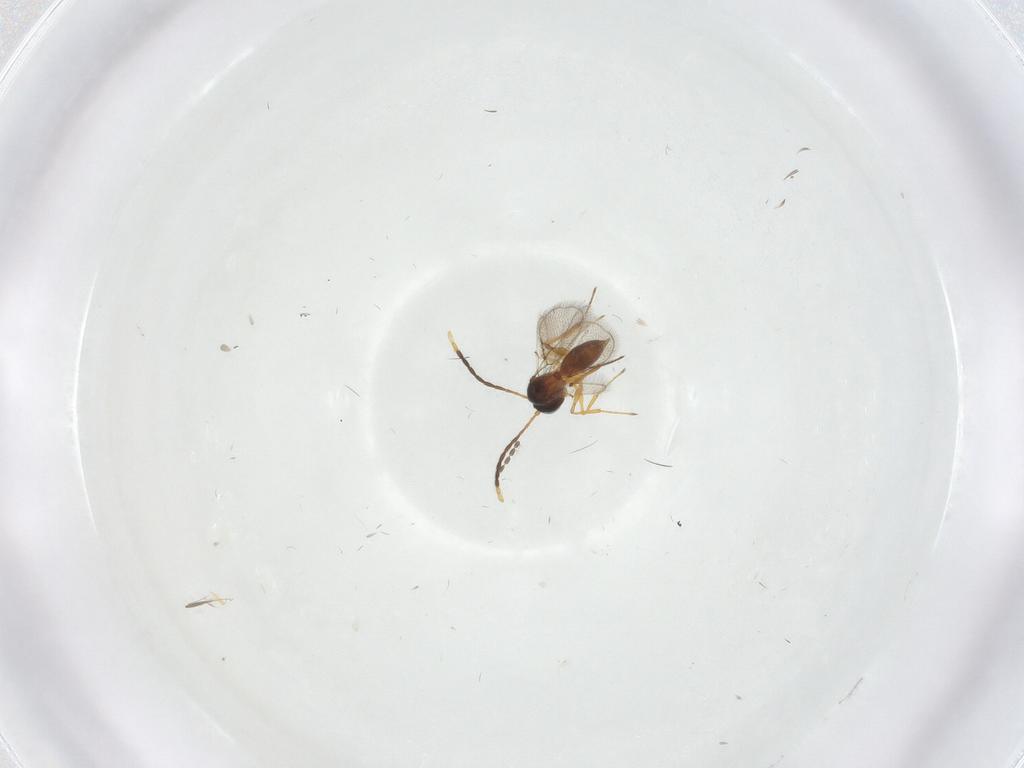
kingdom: Animalia
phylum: Arthropoda
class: Insecta
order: Hymenoptera
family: Figitidae
